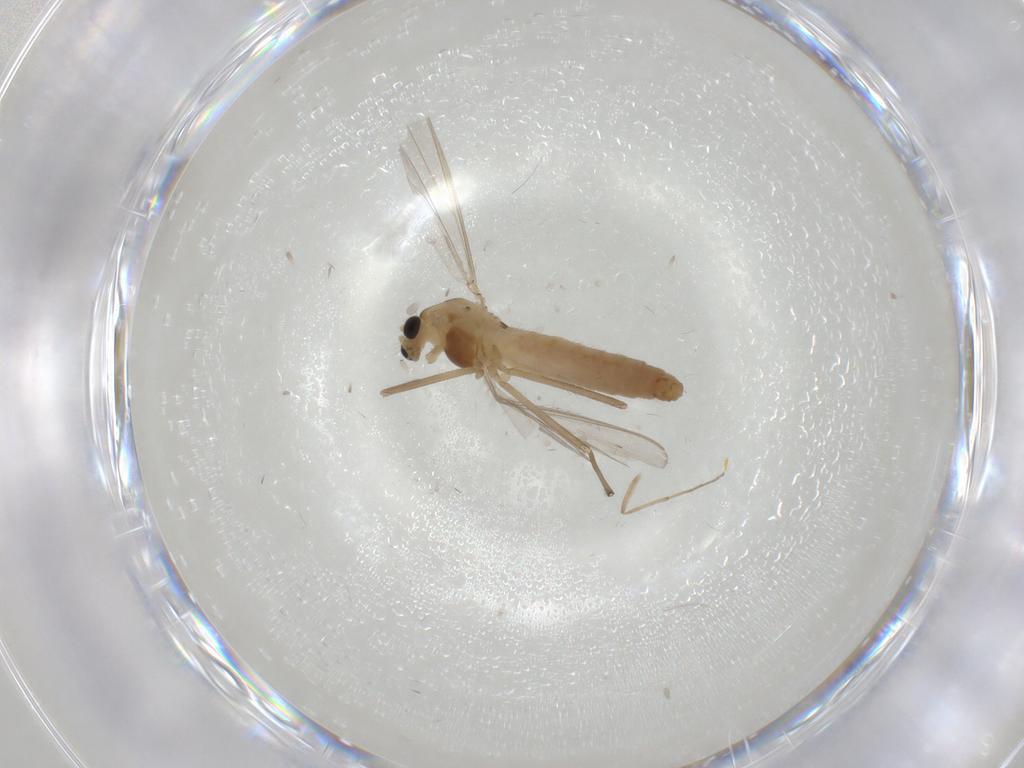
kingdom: Animalia
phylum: Arthropoda
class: Insecta
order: Diptera
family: Chironomidae
